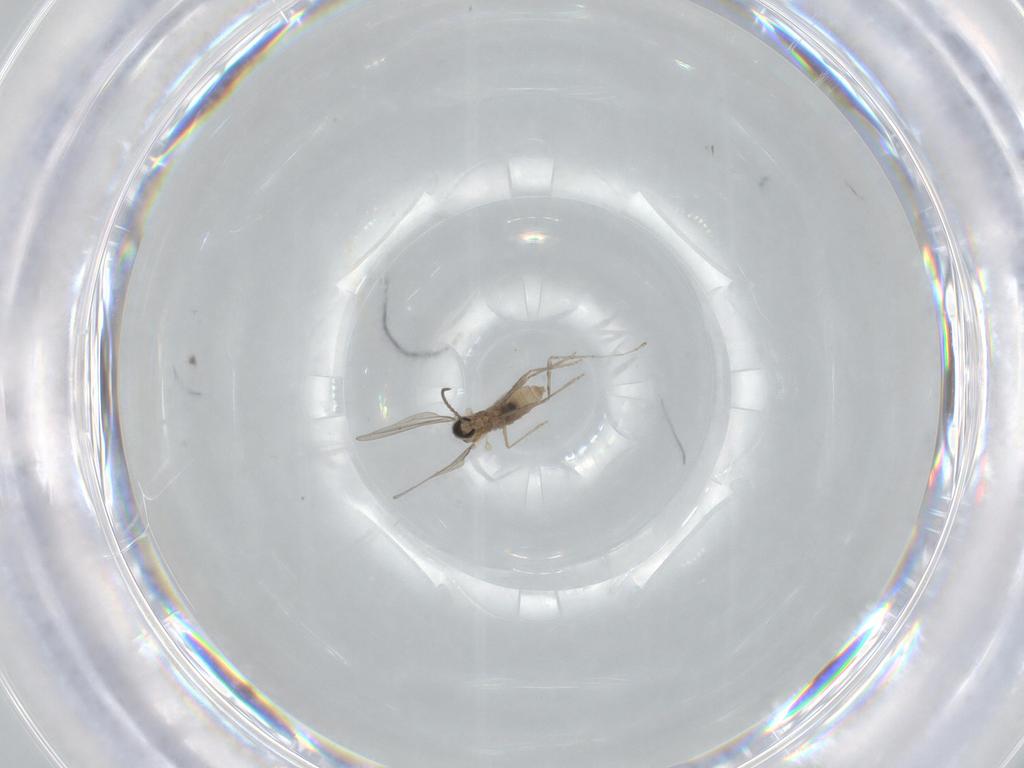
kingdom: Animalia
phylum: Arthropoda
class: Insecta
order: Diptera
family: Cecidomyiidae
